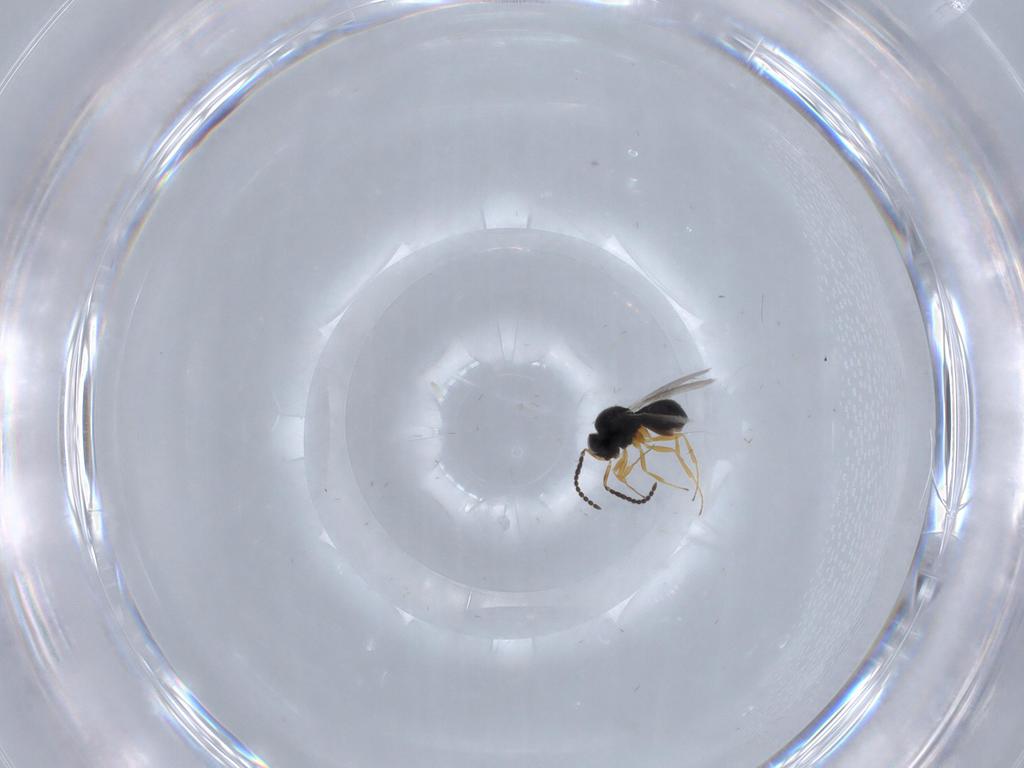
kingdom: Animalia
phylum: Arthropoda
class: Insecta
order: Hymenoptera
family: Scelionidae
